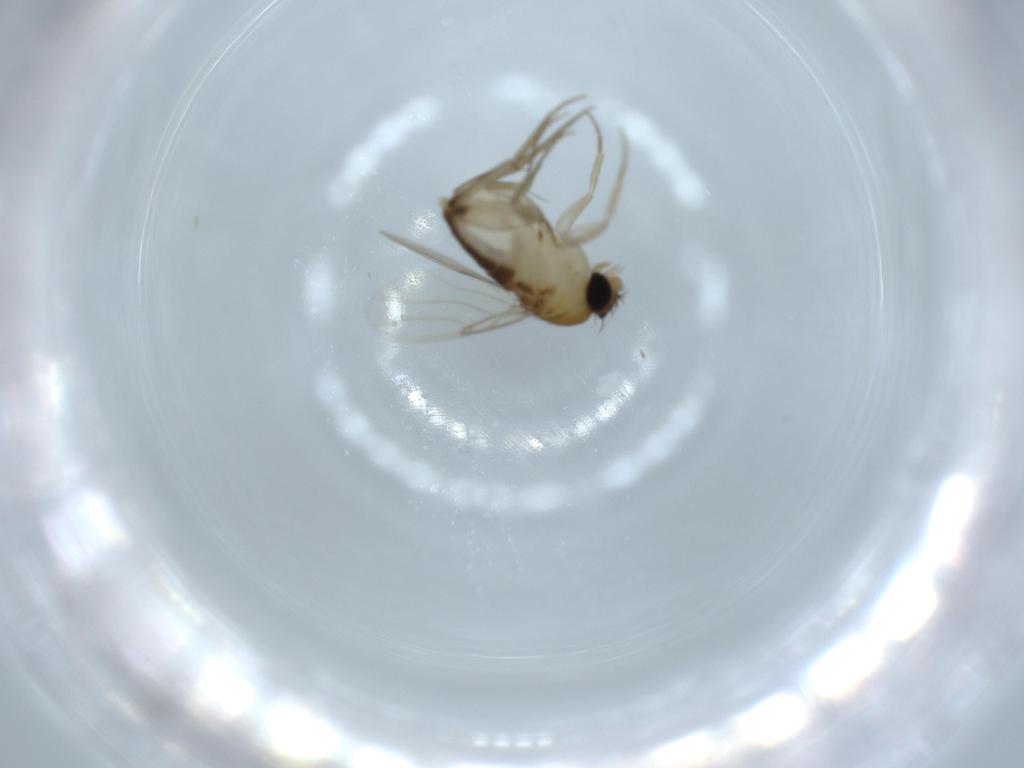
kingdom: Animalia
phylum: Arthropoda
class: Insecta
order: Diptera
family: Phoridae
